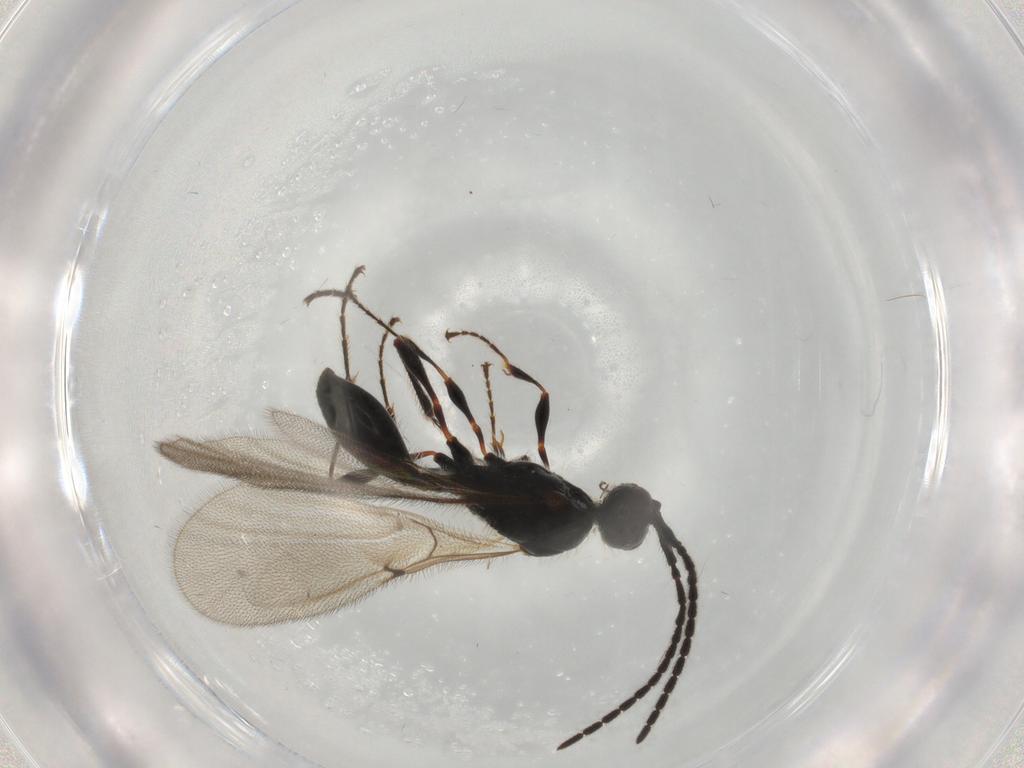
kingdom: Animalia
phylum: Arthropoda
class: Insecta
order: Hymenoptera
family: Diapriidae
